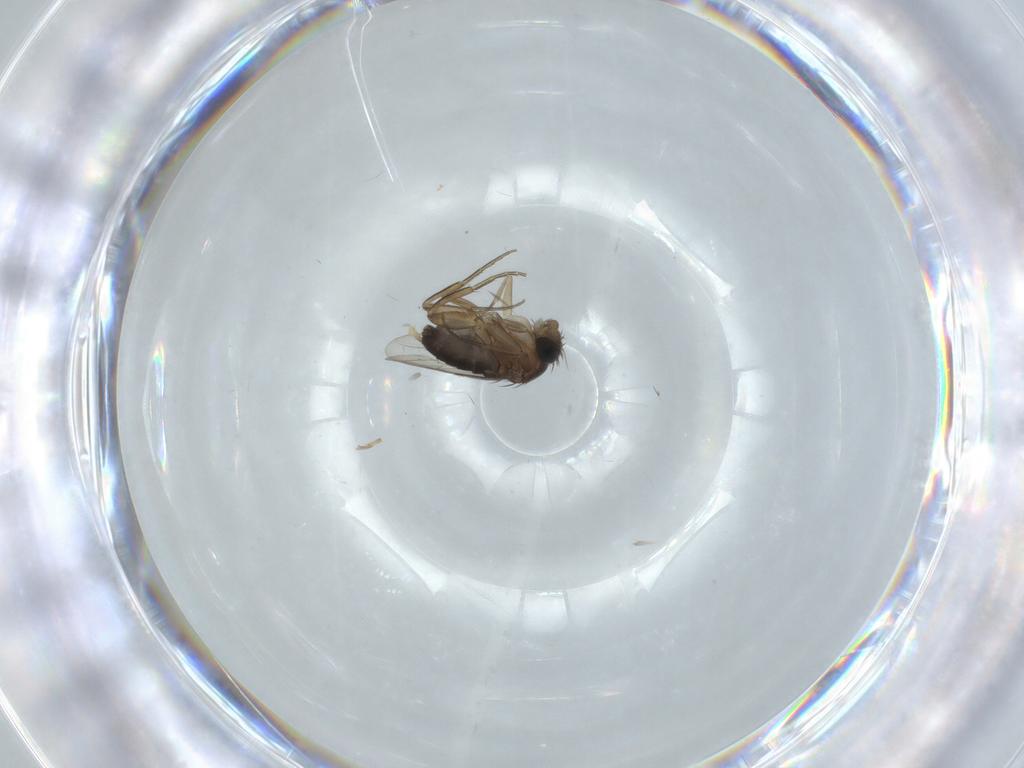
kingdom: Animalia
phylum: Arthropoda
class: Insecta
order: Diptera
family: Phoridae
